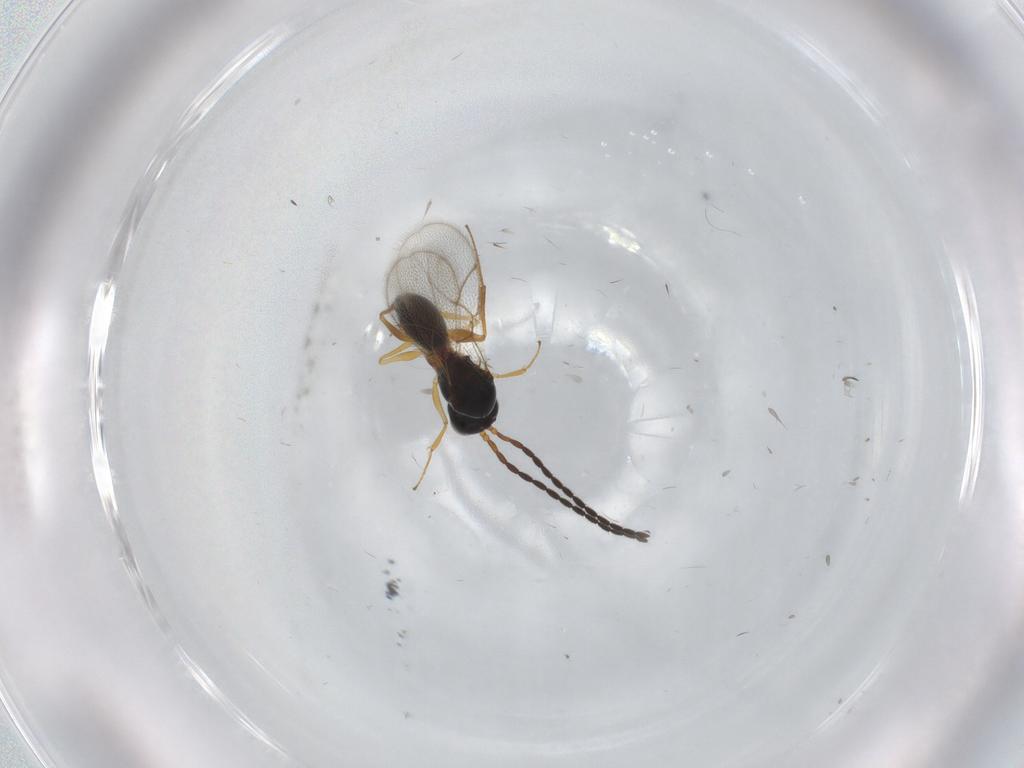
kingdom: Animalia
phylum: Arthropoda
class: Insecta
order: Hymenoptera
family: Figitidae
